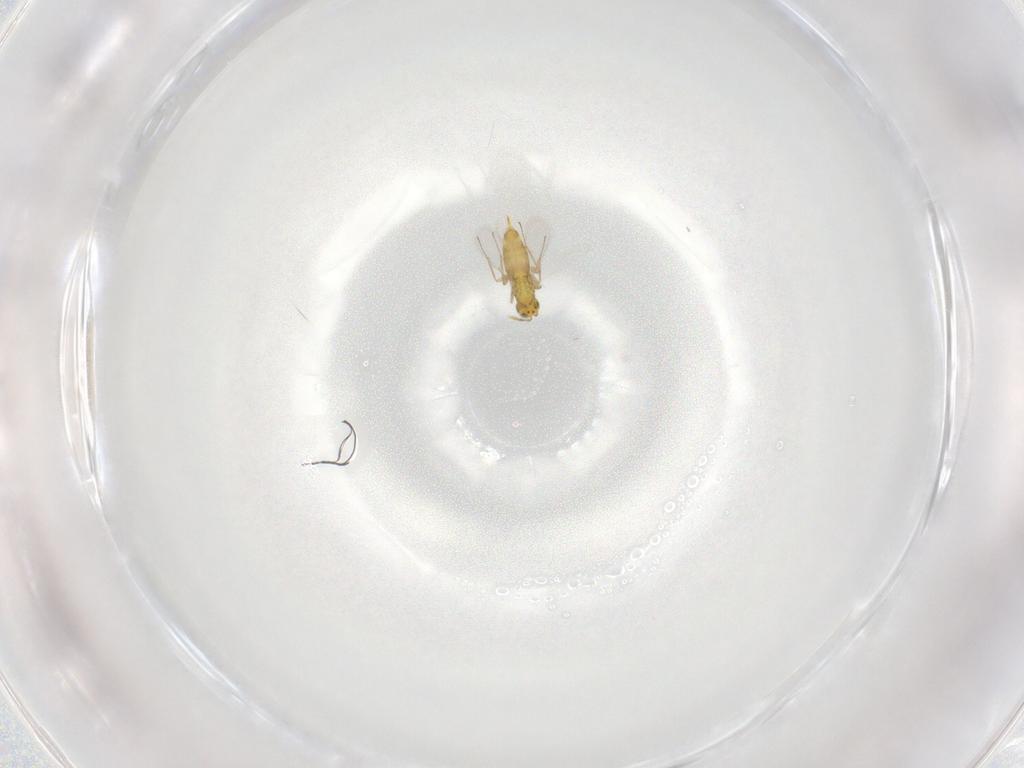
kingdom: Animalia
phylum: Arthropoda
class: Insecta
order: Hymenoptera
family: Aphelinidae
